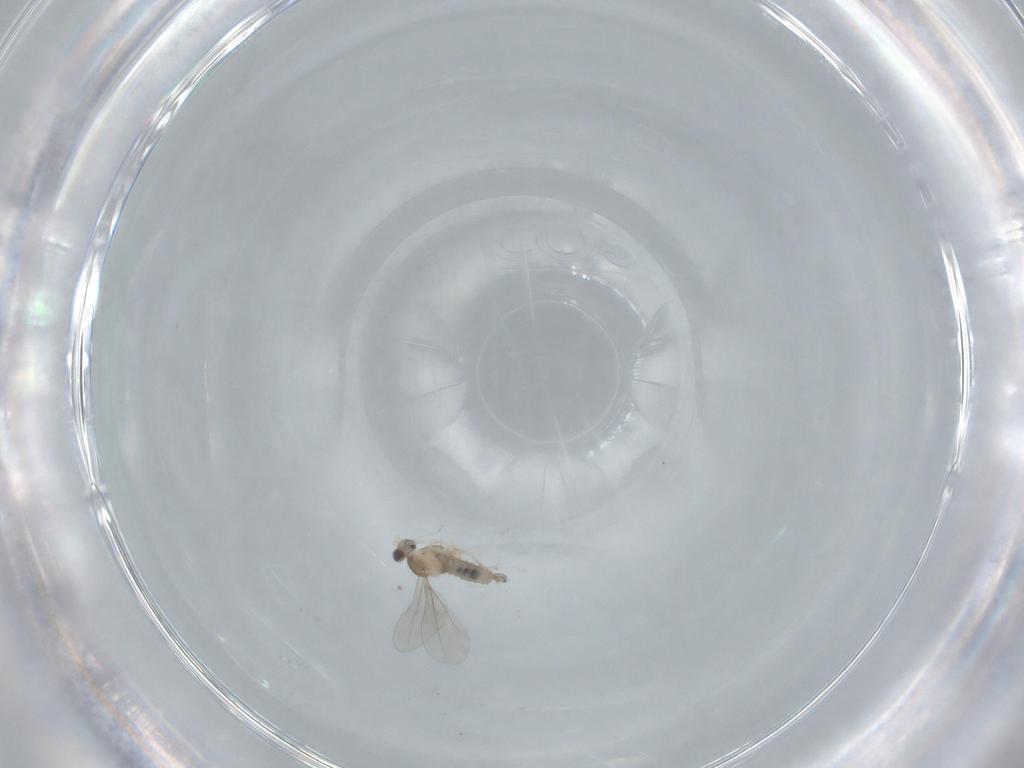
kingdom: Animalia
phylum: Arthropoda
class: Insecta
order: Diptera
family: Cecidomyiidae
